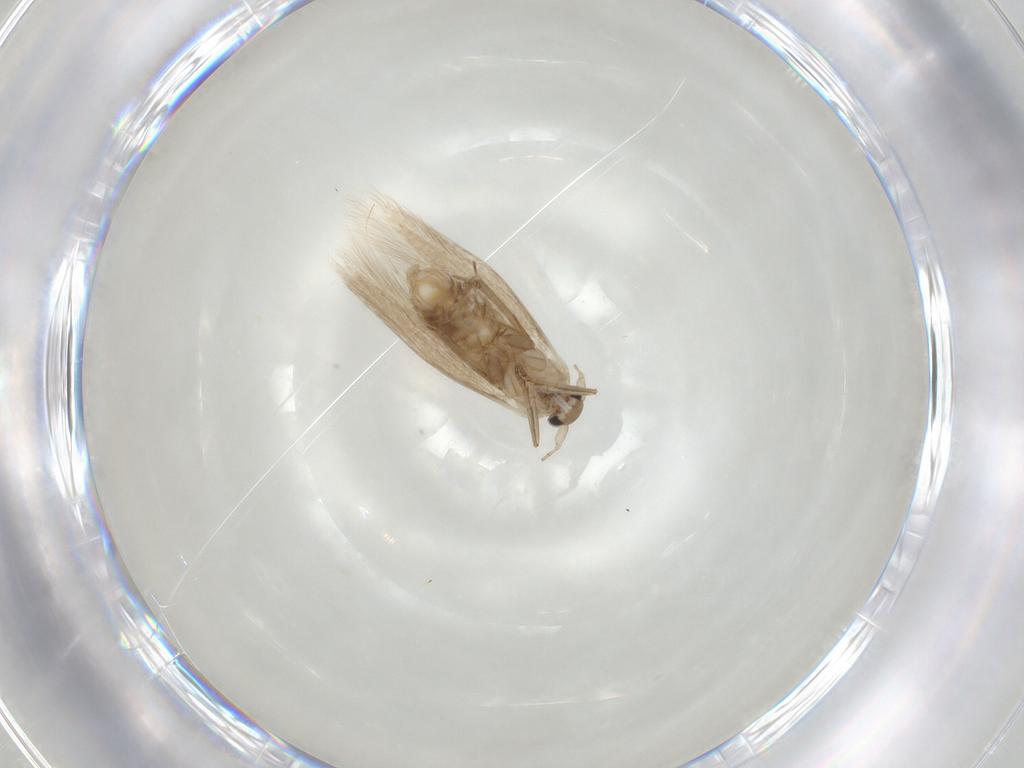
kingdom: Animalia
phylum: Arthropoda
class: Insecta
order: Lepidoptera
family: Bucculatricidae
